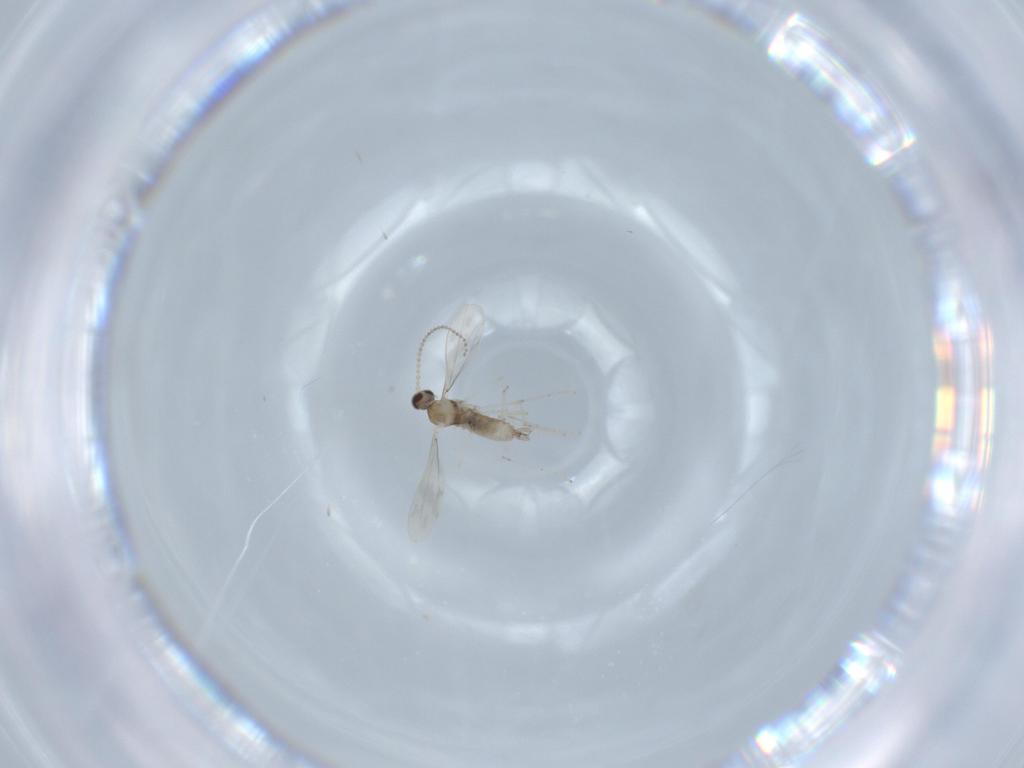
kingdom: Animalia
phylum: Arthropoda
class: Insecta
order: Diptera
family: Cecidomyiidae
